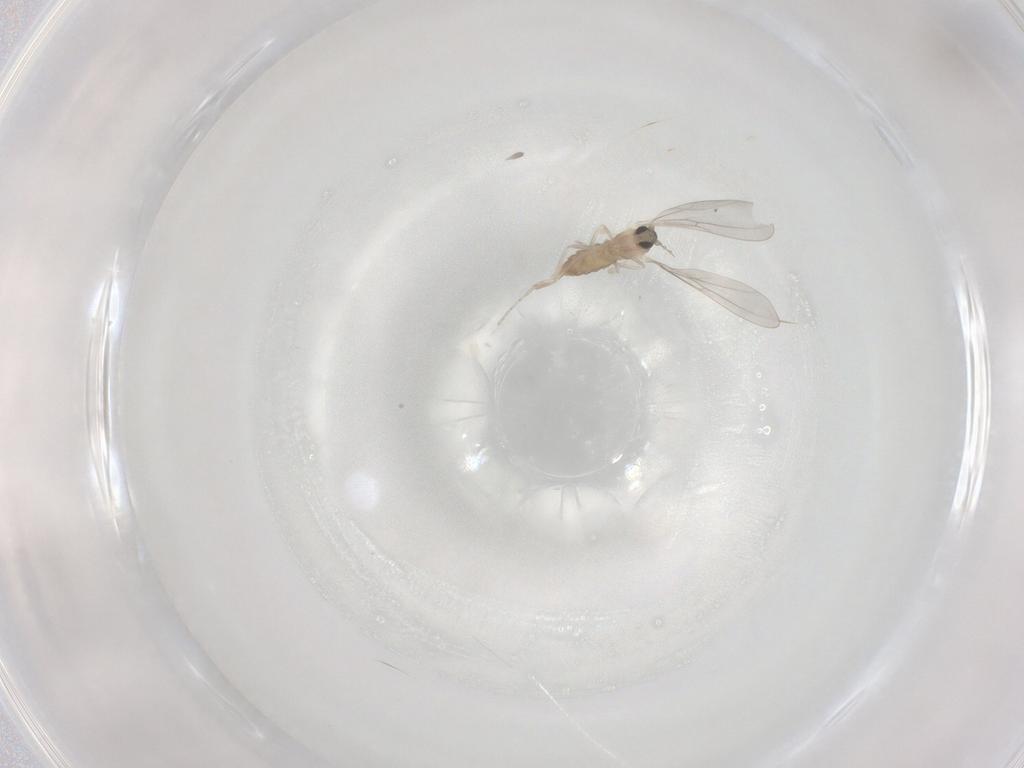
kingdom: Animalia
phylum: Arthropoda
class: Insecta
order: Diptera
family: Cecidomyiidae
